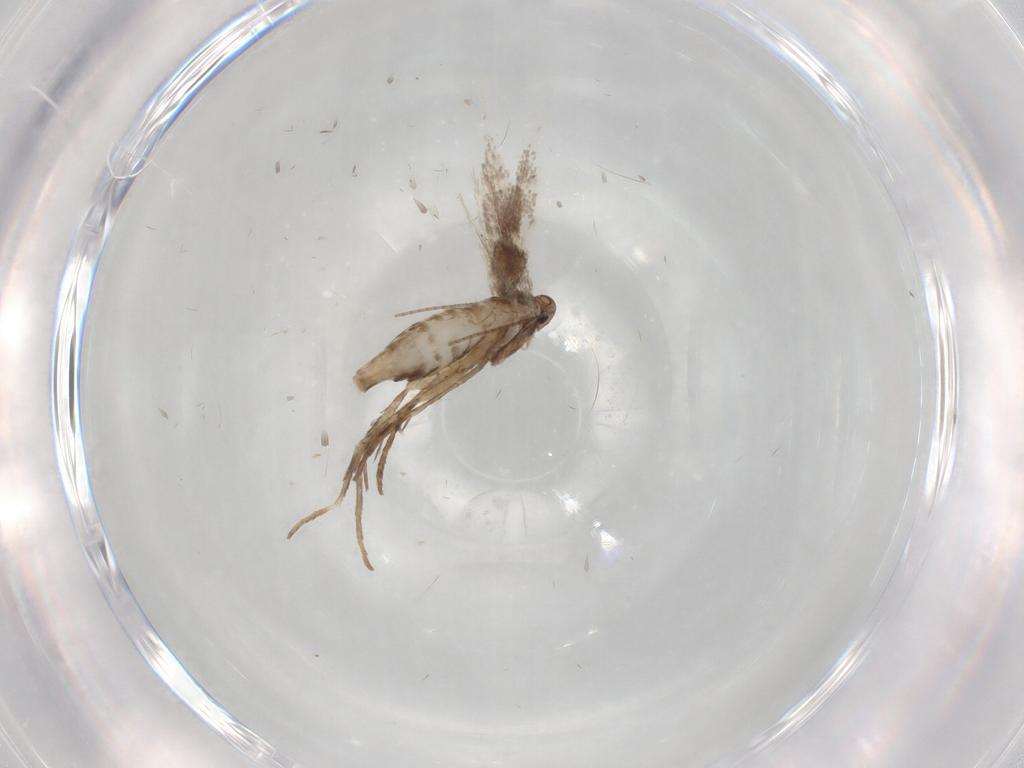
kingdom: Animalia
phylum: Arthropoda
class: Insecta
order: Lepidoptera
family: Gracillariidae
